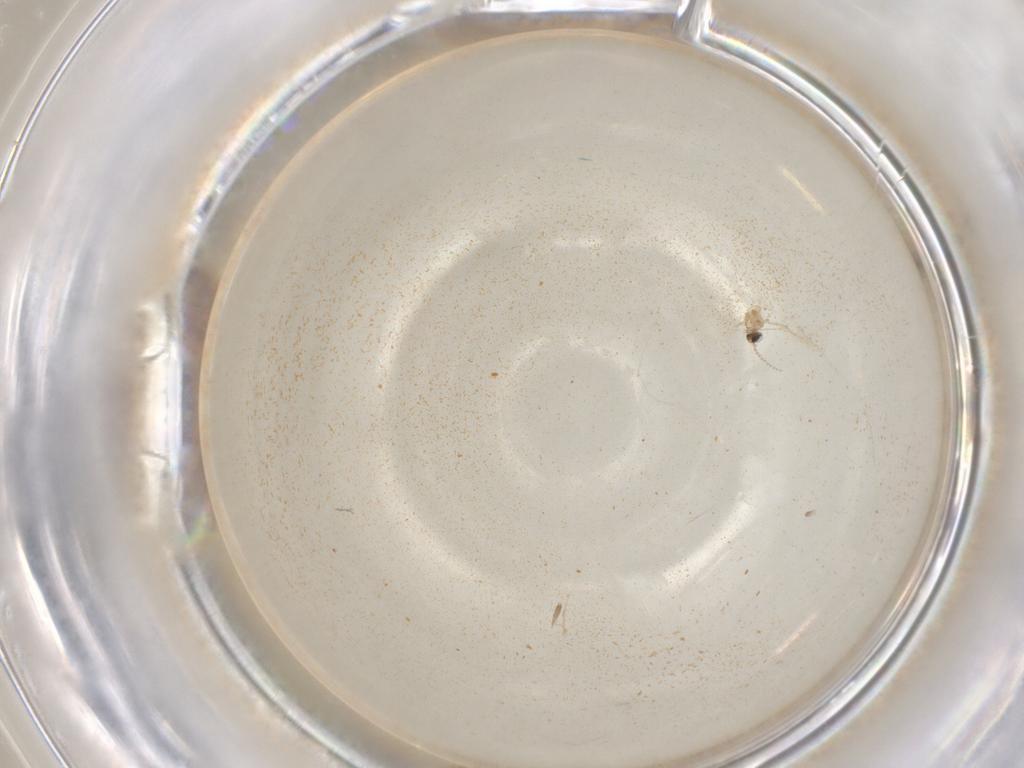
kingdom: Animalia
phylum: Arthropoda
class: Insecta
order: Diptera
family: Cecidomyiidae
